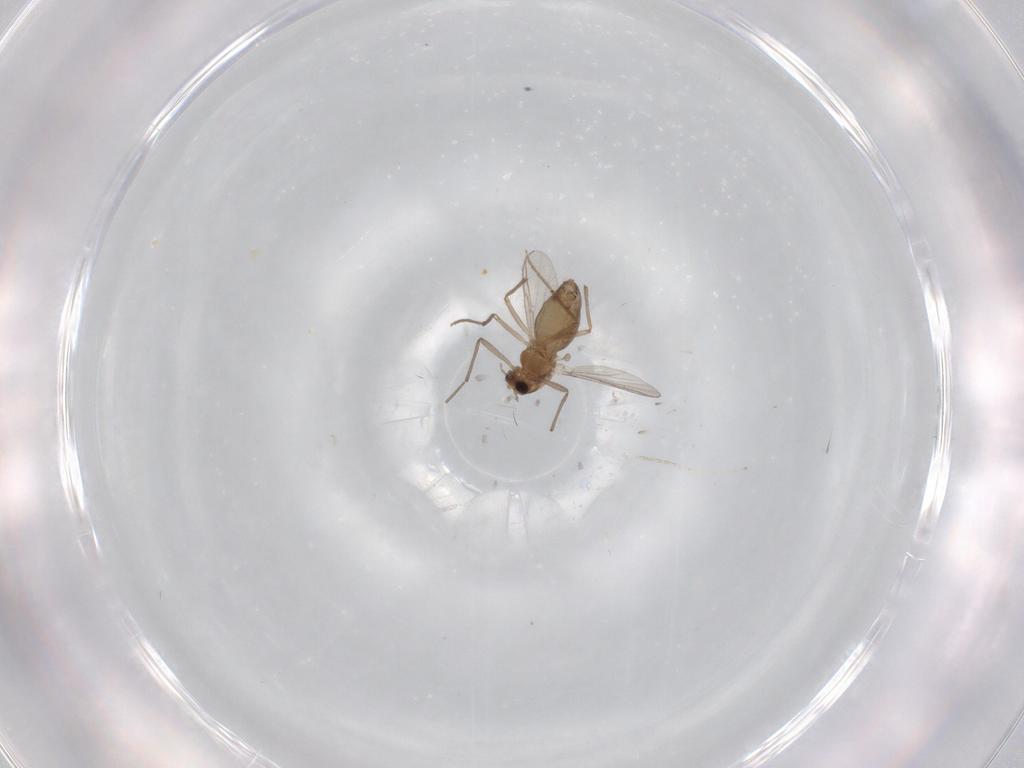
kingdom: Animalia
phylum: Arthropoda
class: Insecta
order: Diptera
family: Chironomidae
